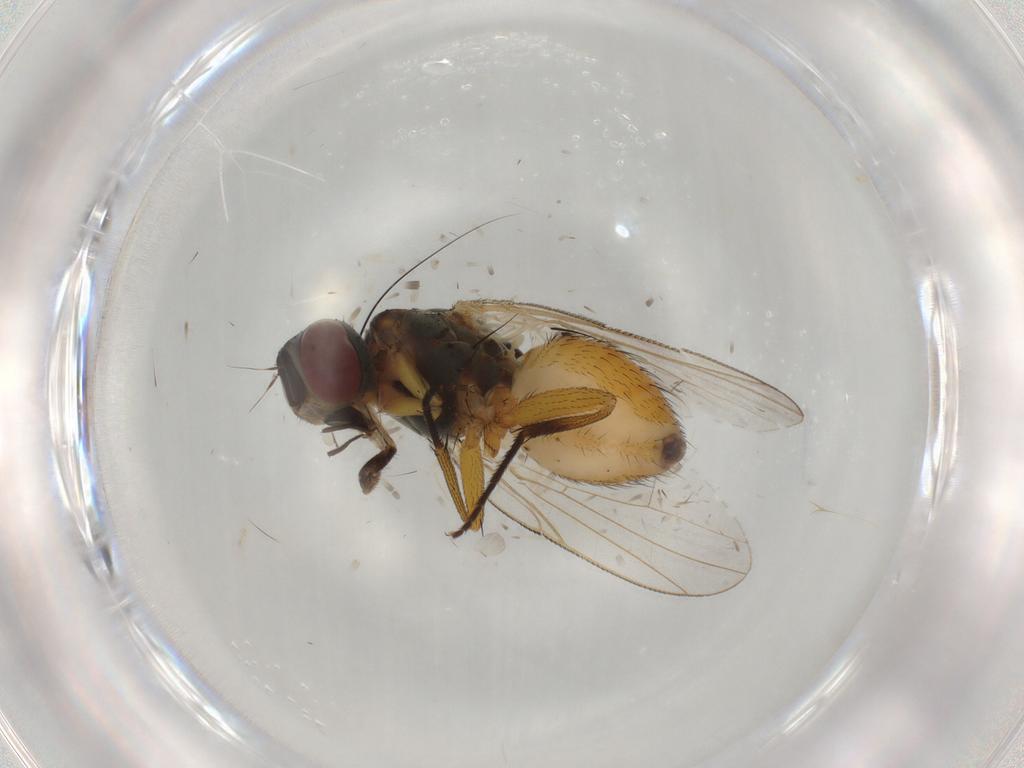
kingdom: Animalia
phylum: Arthropoda
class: Insecta
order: Diptera
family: Muscidae
